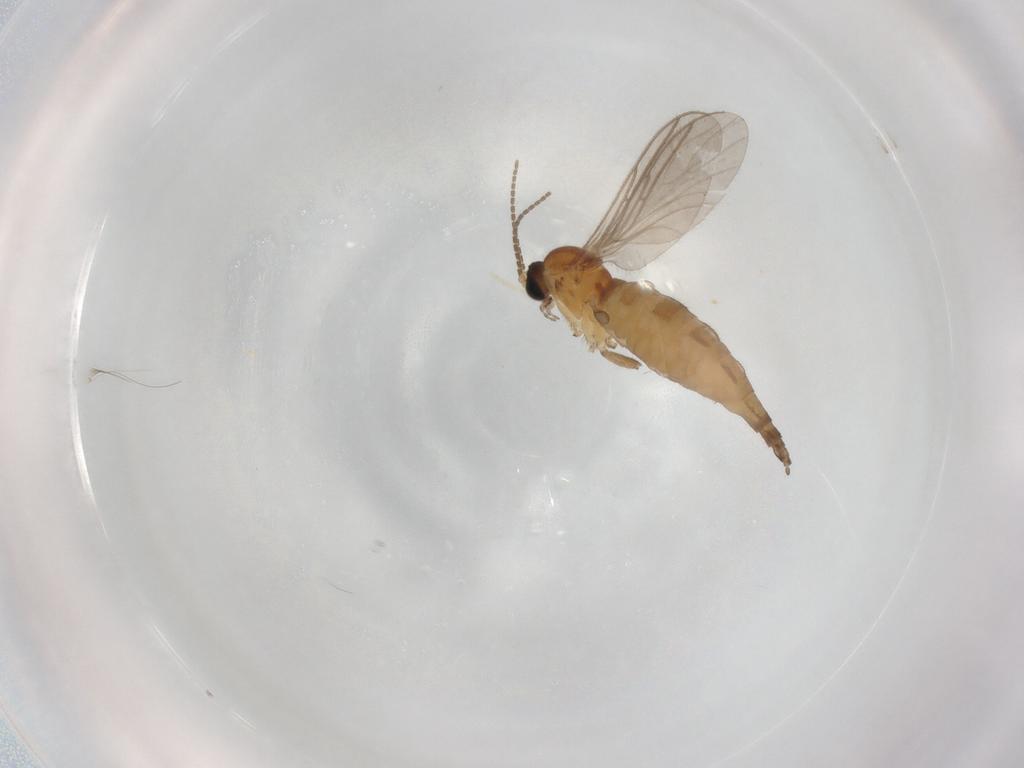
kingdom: Animalia
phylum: Arthropoda
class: Insecta
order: Diptera
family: Sciaridae
